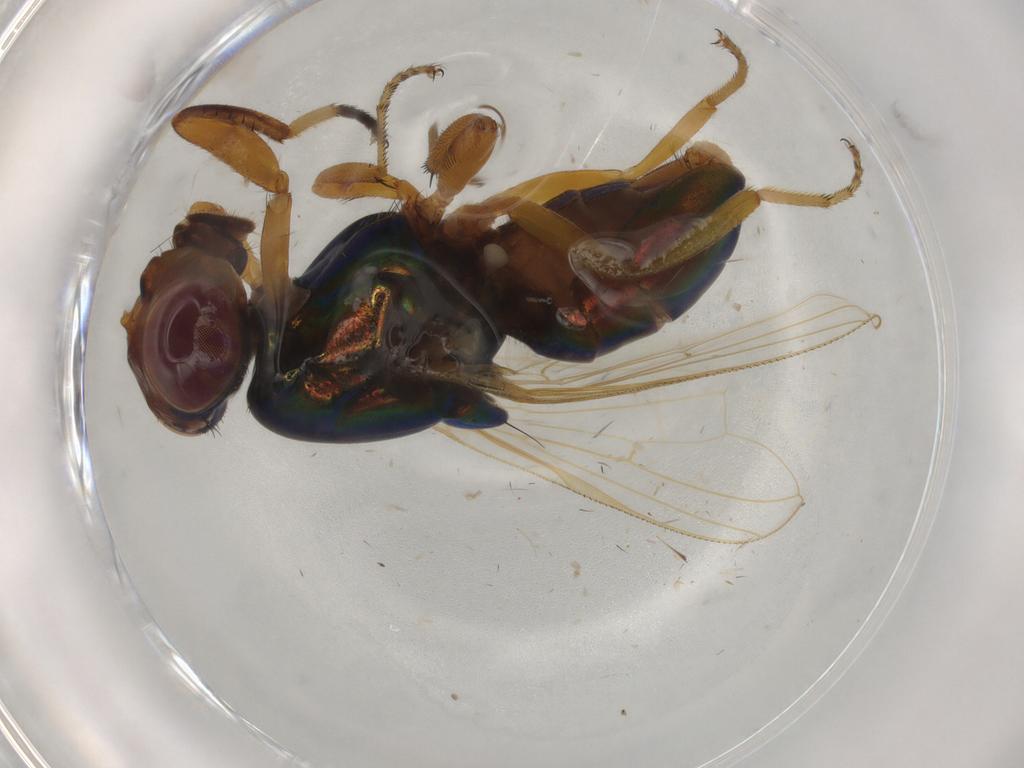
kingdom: Animalia
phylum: Arthropoda
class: Insecta
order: Diptera
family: Ulidiidae
